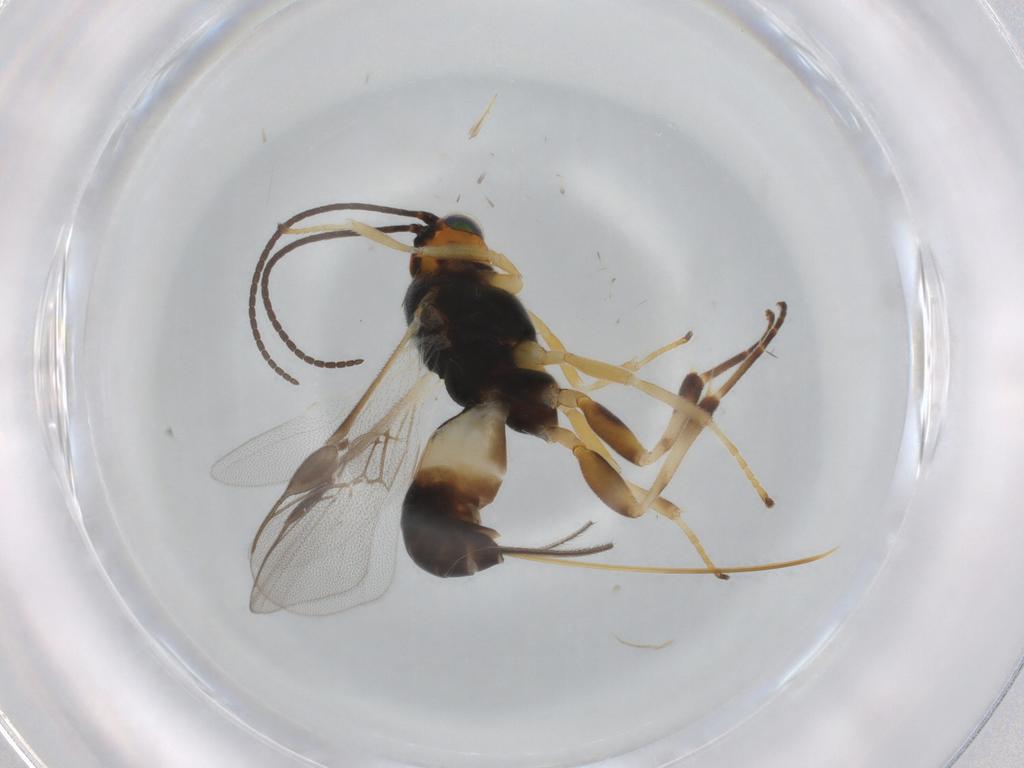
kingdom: Animalia
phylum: Arthropoda
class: Insecta
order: Hymenoptera
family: Braconidae
